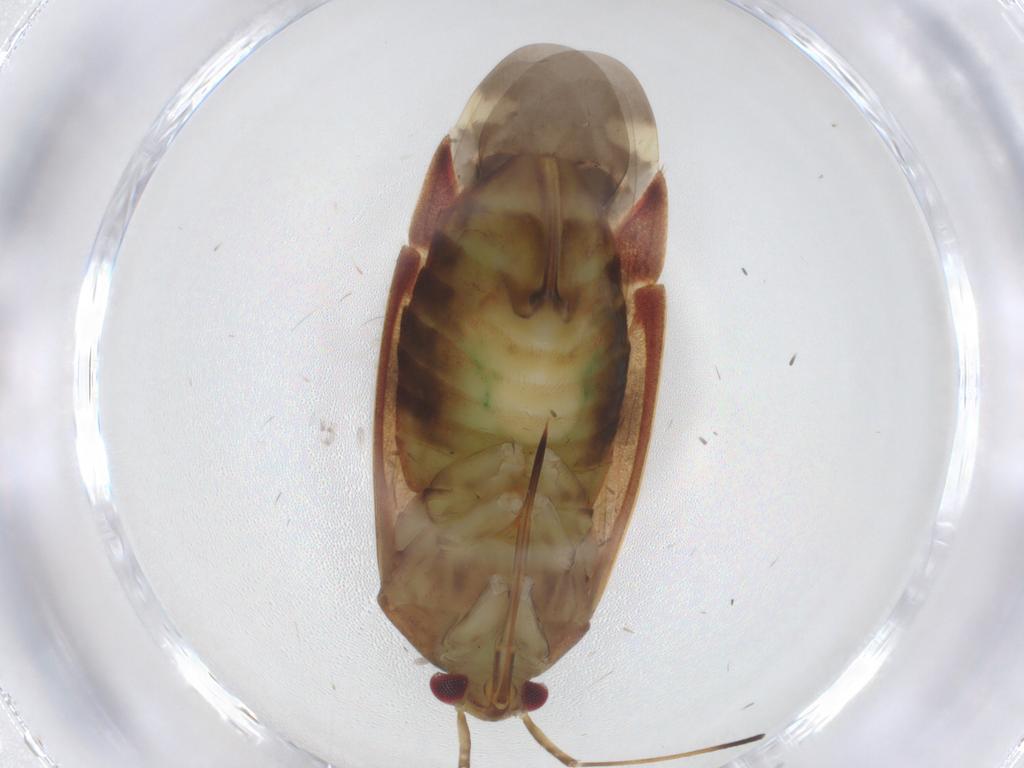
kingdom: Animalia
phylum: Arthropoda
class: Insecta
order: Hemiptera
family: Miridae
